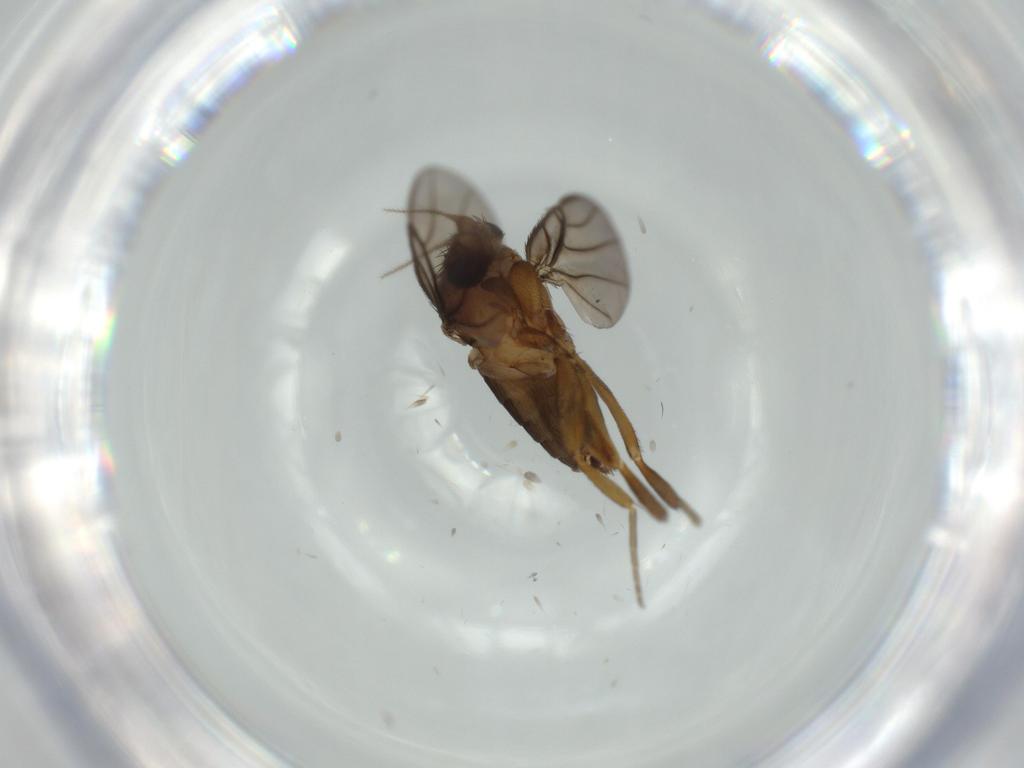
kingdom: Animalia
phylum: Arthropoda
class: Insecta
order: Diptera
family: Phoridae
